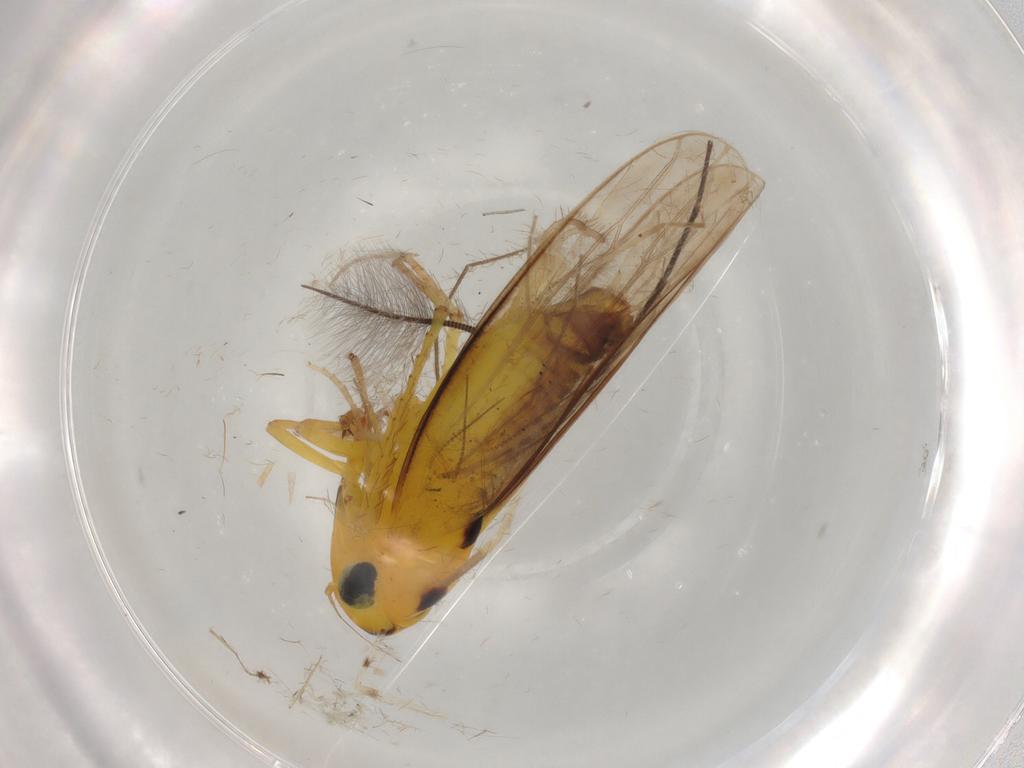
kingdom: Animalia
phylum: Arthropoda
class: Insecta
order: Hemiptera
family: Cicadellidae
